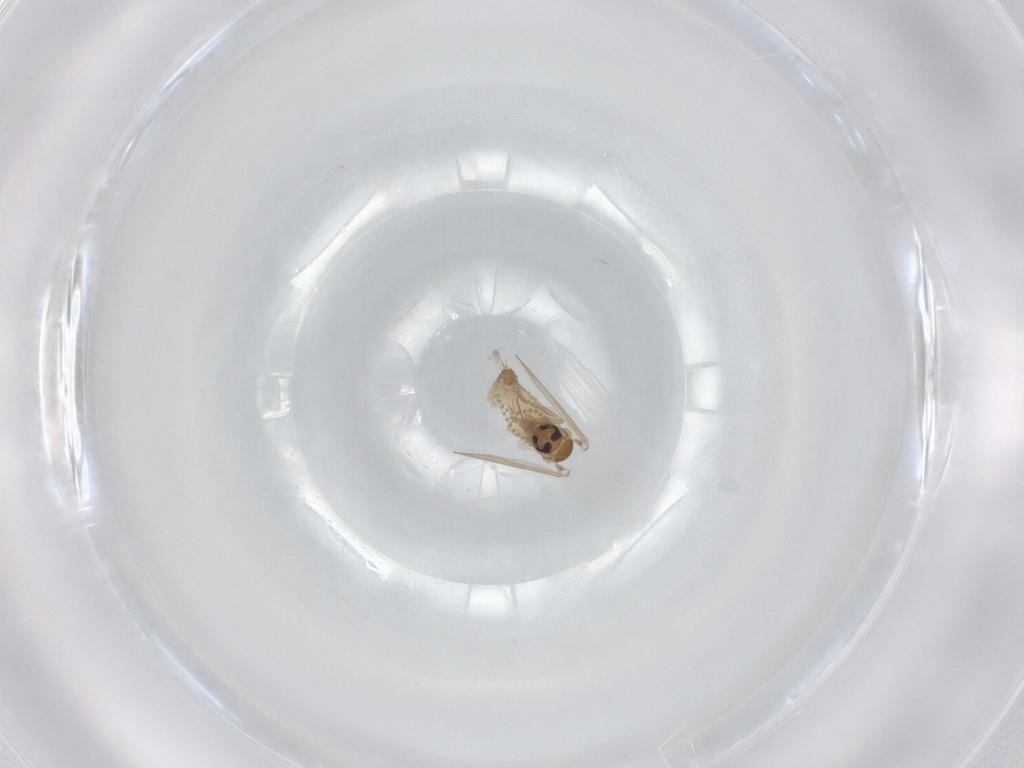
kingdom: Animalia
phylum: Arthropoda
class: Insecta
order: Diptera
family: Psychodidae
